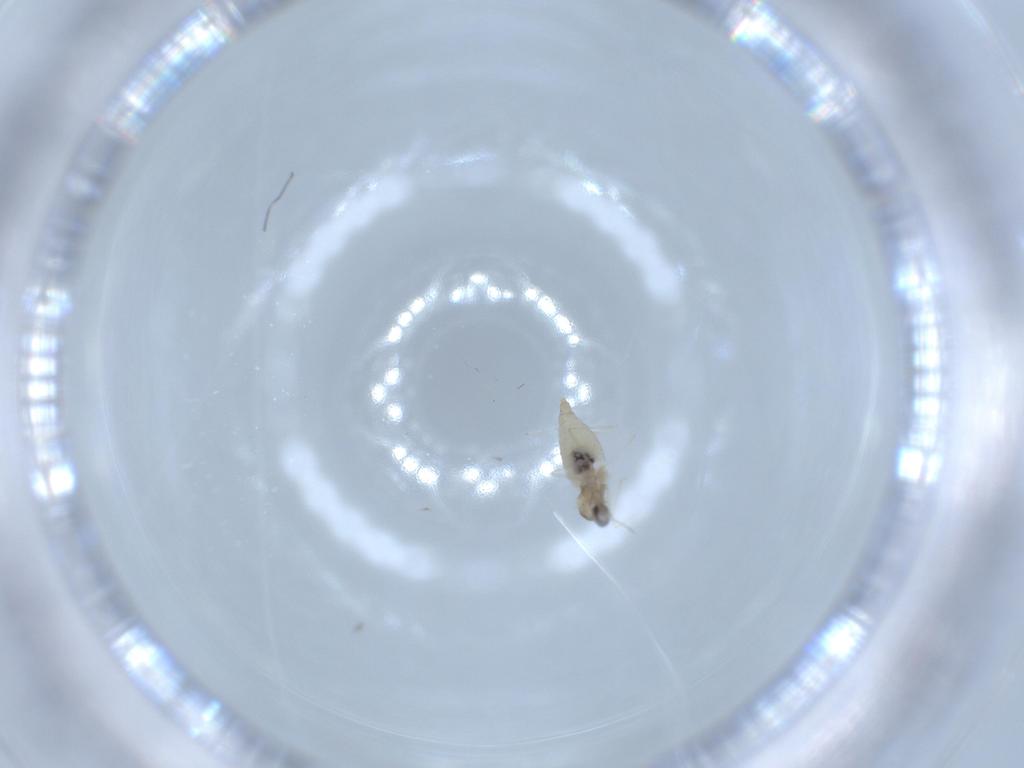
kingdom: Animalia
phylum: Arthropoda
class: Insecta
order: Diptera
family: Cecidomyiidae
